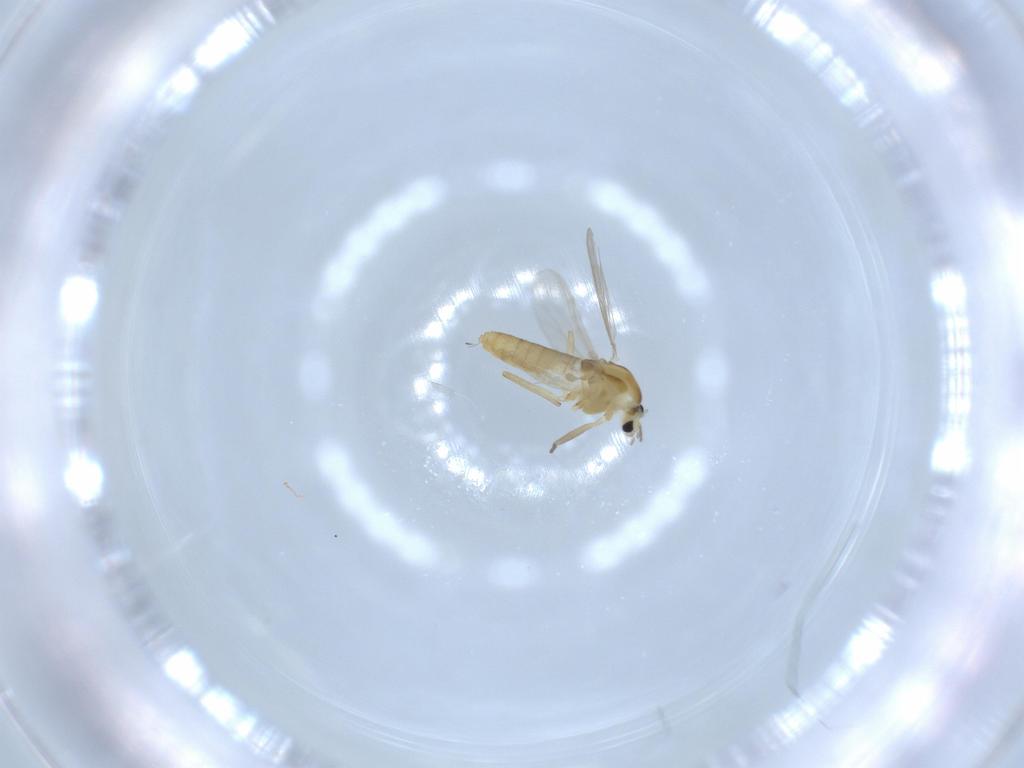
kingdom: Animalia
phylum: Arthropoda
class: Insecta
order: Diptera
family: Chironomidae
